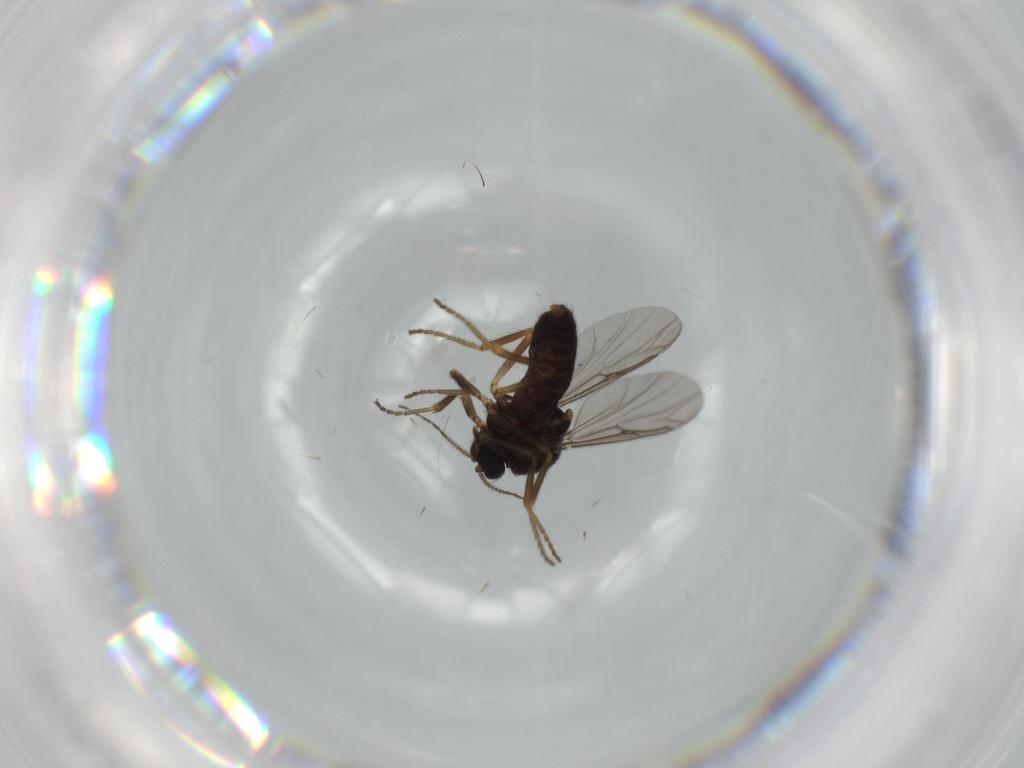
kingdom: Animalia
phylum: Arthropoda
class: Insecta
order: Diptera
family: Ceratopogonidae
